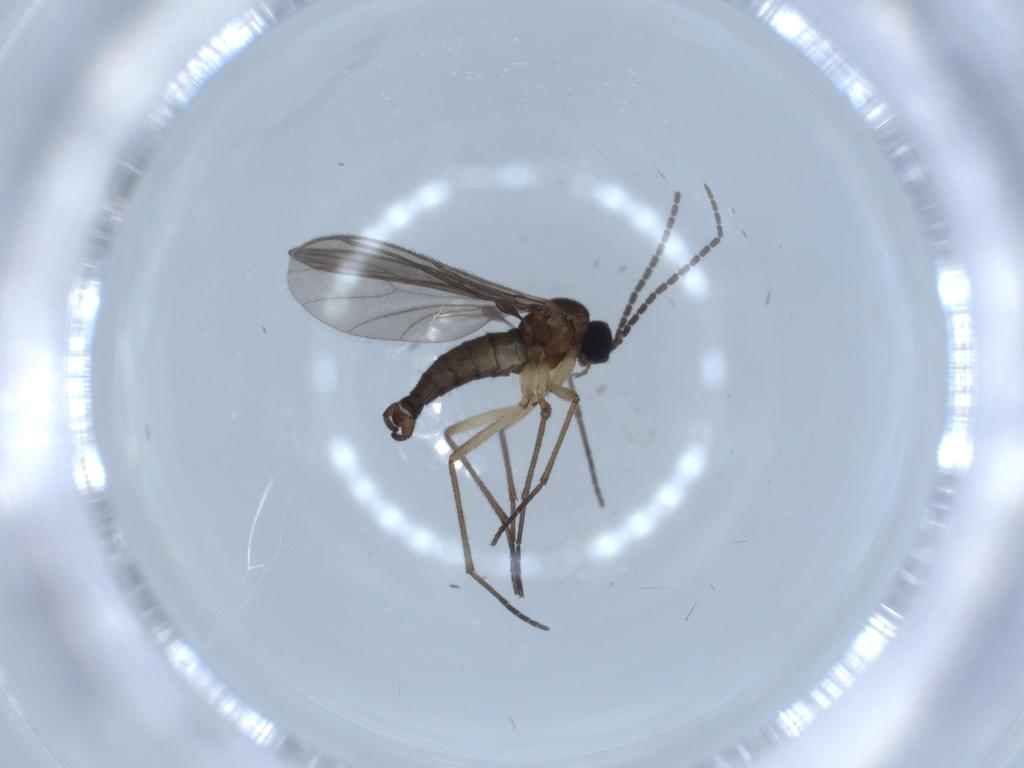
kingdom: Animalia
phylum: Arthropoda
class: Insecta
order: Diptera
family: Sciaridae
